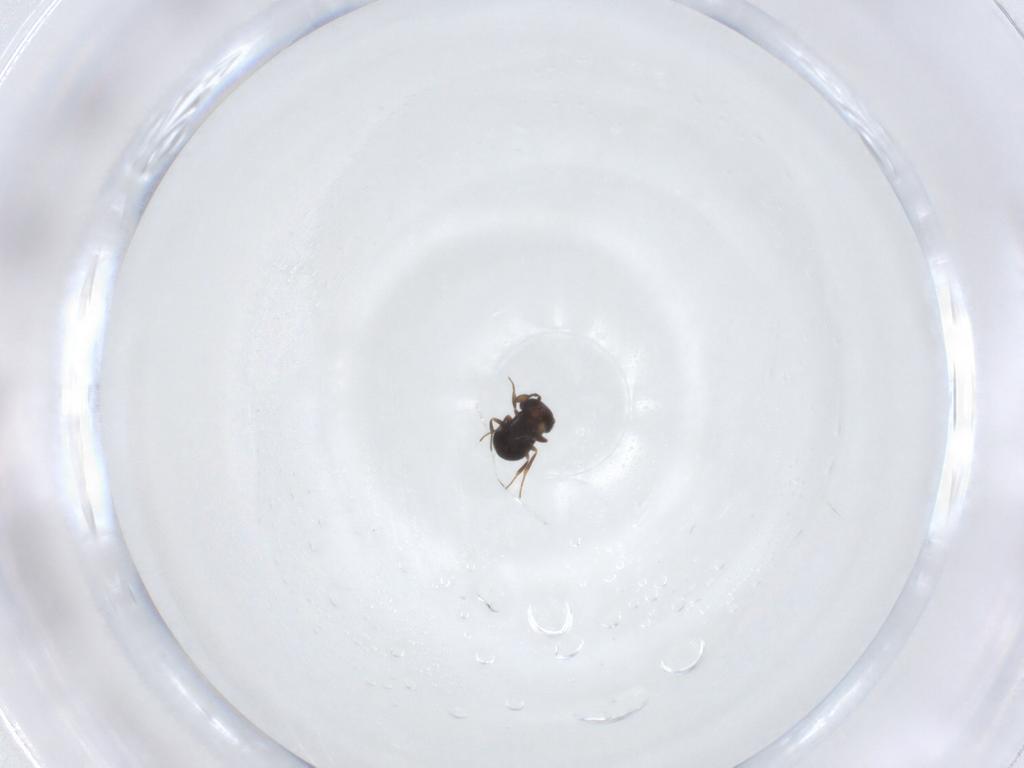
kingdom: Animalia
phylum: Arthropoda
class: Insecta
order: Hymenoptera
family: Scelionidae
